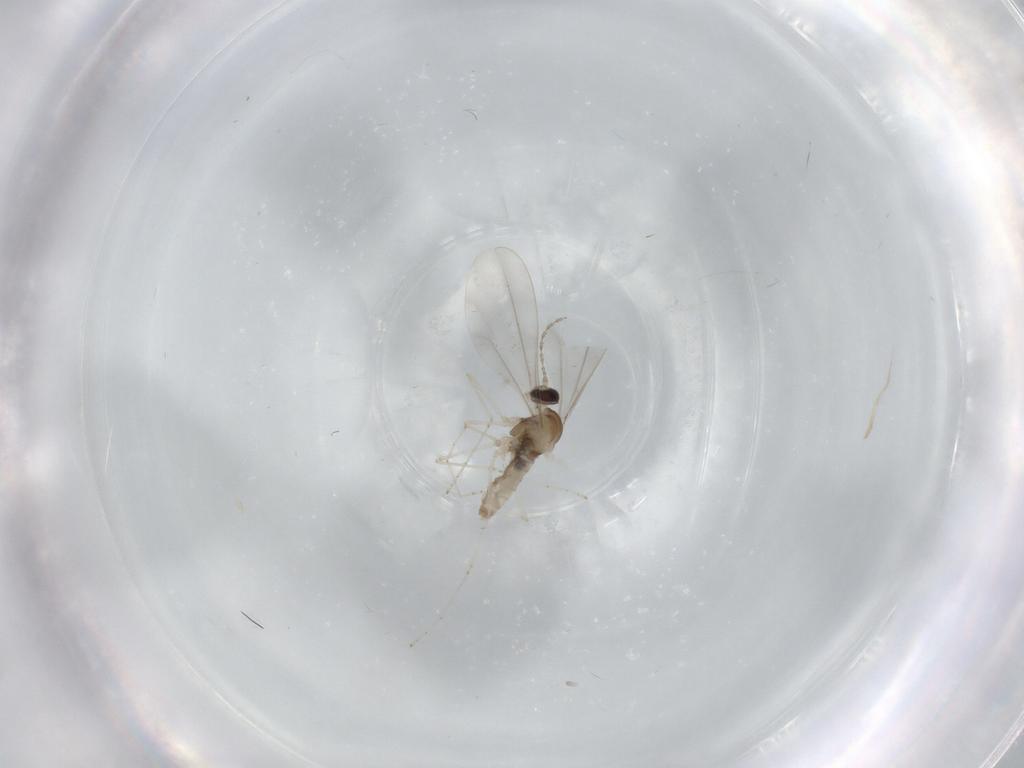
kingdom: Animalia
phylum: Arthropoda
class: Insecta
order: Diptera
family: Cecidomyiidae
